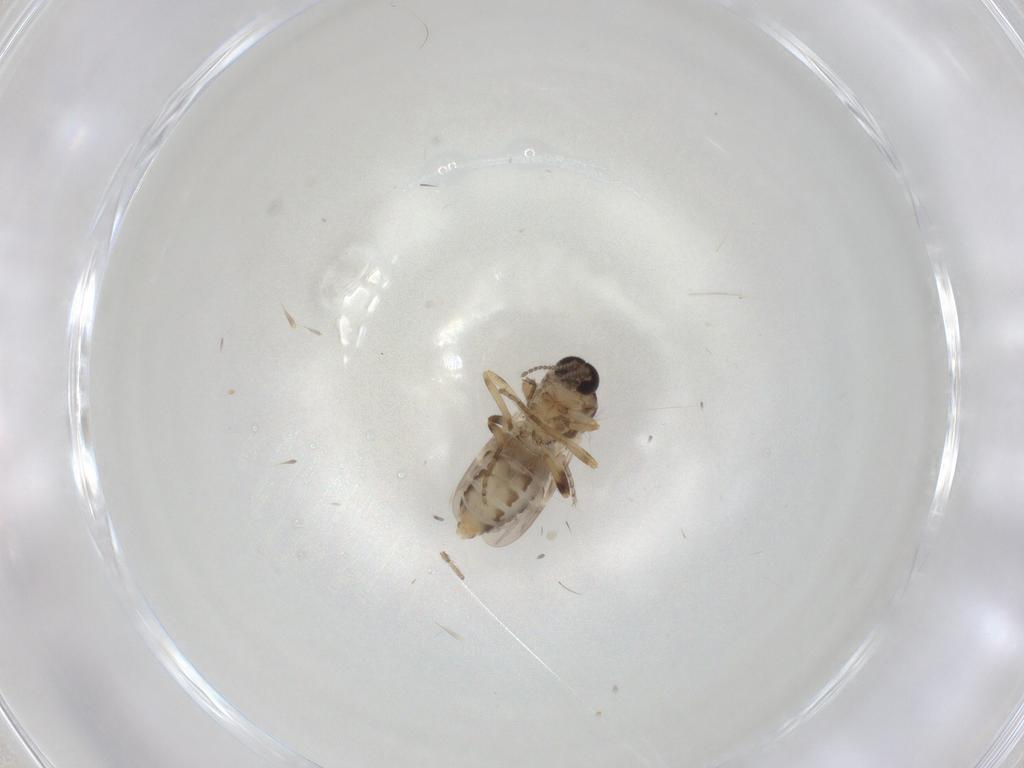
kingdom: Animalia
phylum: Arthropoda
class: Insecta
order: Diptera
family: Ceratopogonidae
